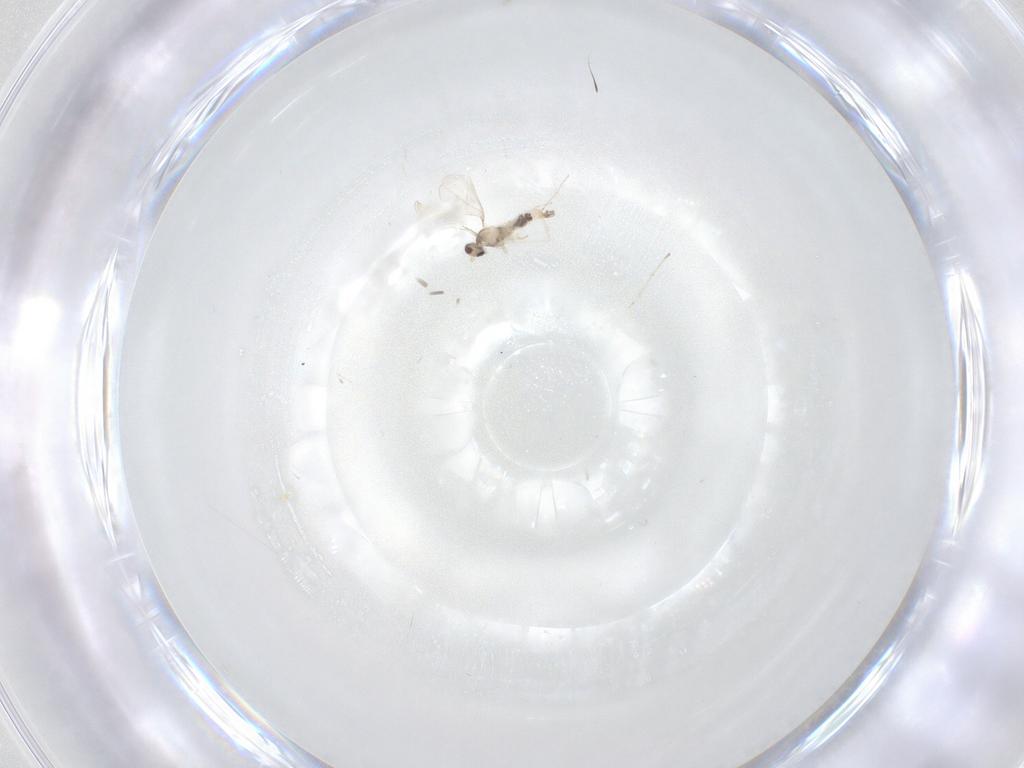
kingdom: Animalia
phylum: Arthropoda
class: Insecta
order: Diptera
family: Cecidomyiidae
